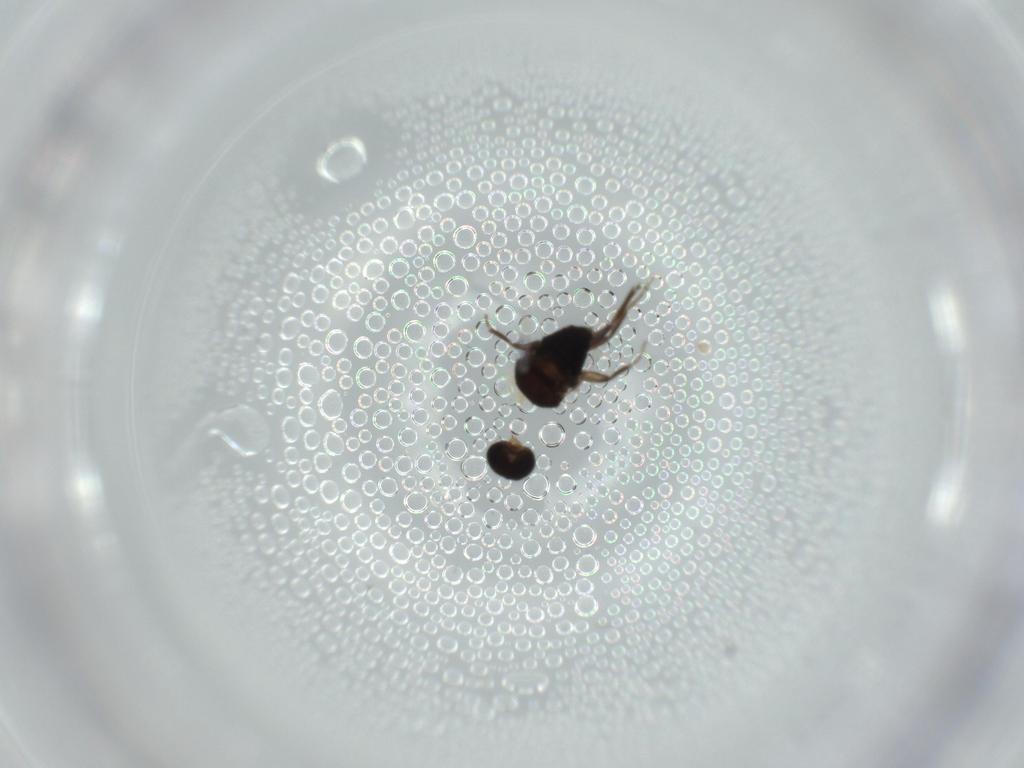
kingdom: Animalia
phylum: Arthropoda
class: Insecta
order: Diptera
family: Phoridae
